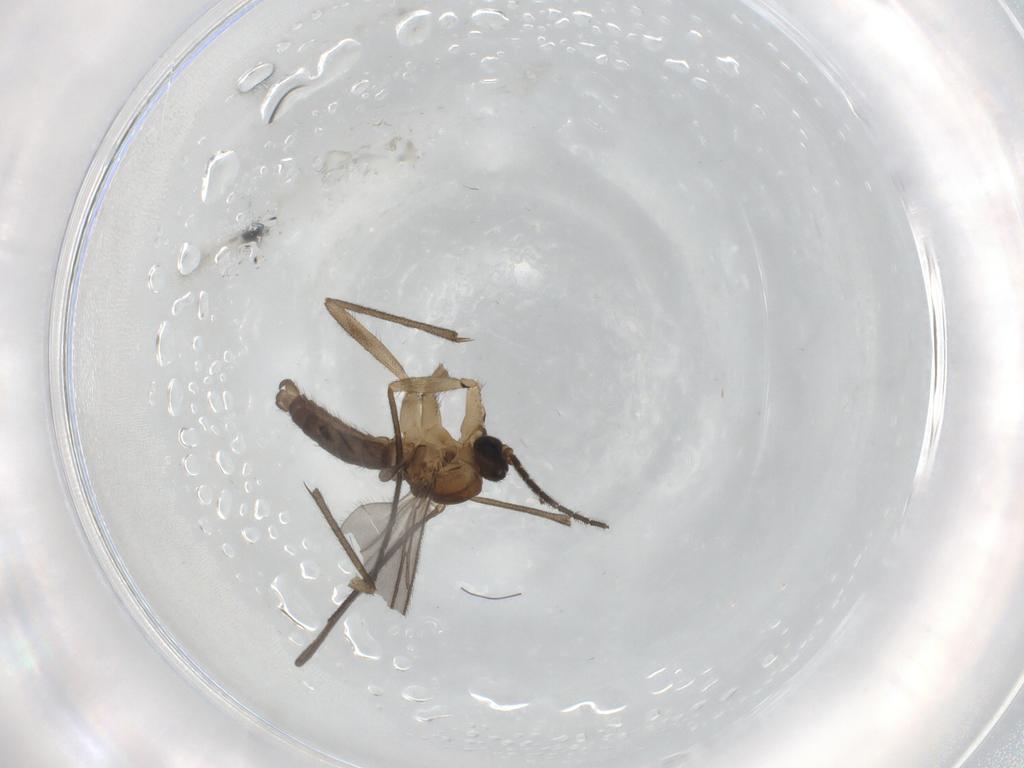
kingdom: Animalia
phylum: Arthropoda
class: Insecta
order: Diptera
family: Sciaridae
